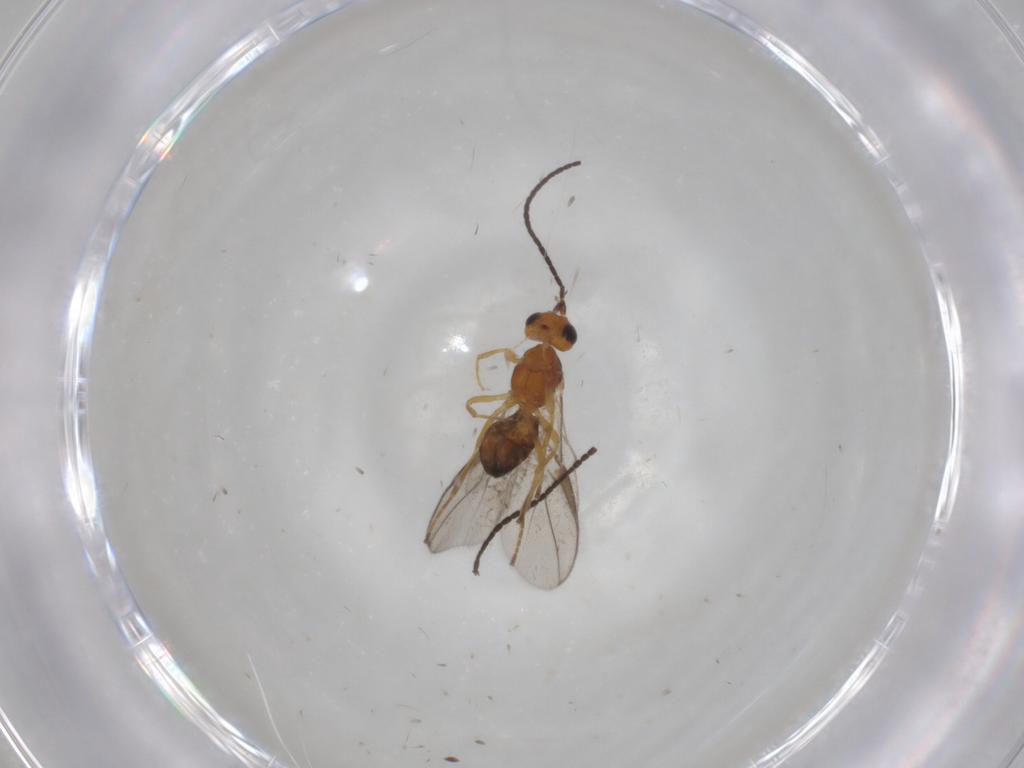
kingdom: Animalia
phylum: Arthropoda
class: Insecta
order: Hymenoptera
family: Braconidae
